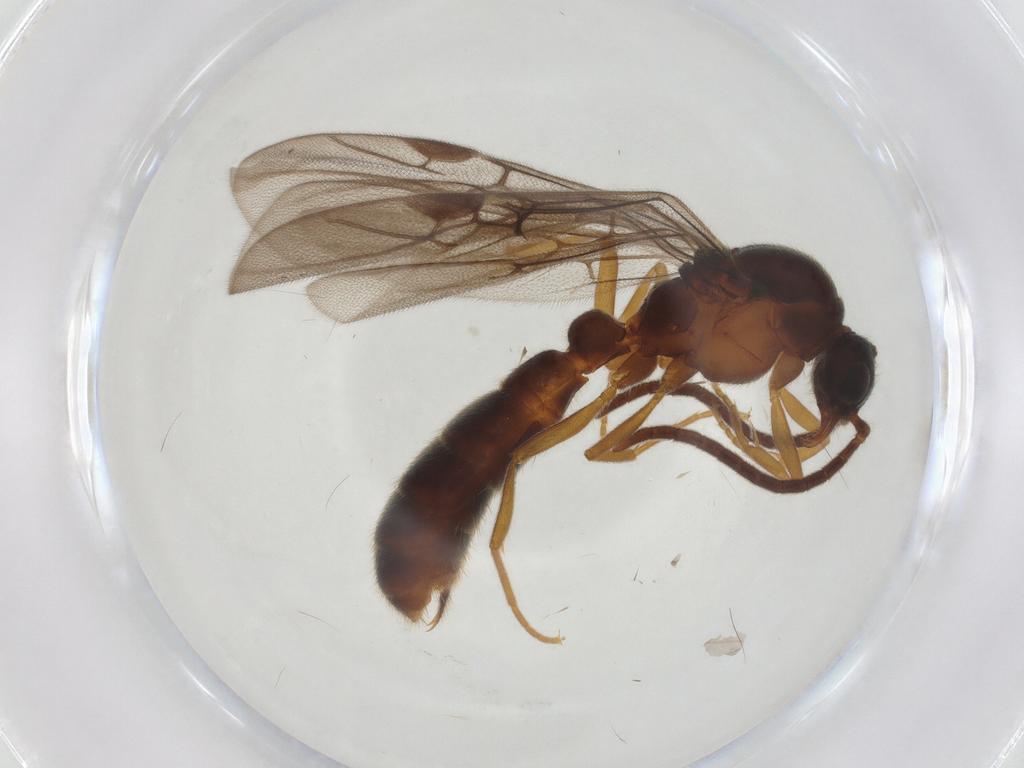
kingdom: Animalia
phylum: Arthropoda
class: Insecta
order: Hymenoptera
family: Formicidae
